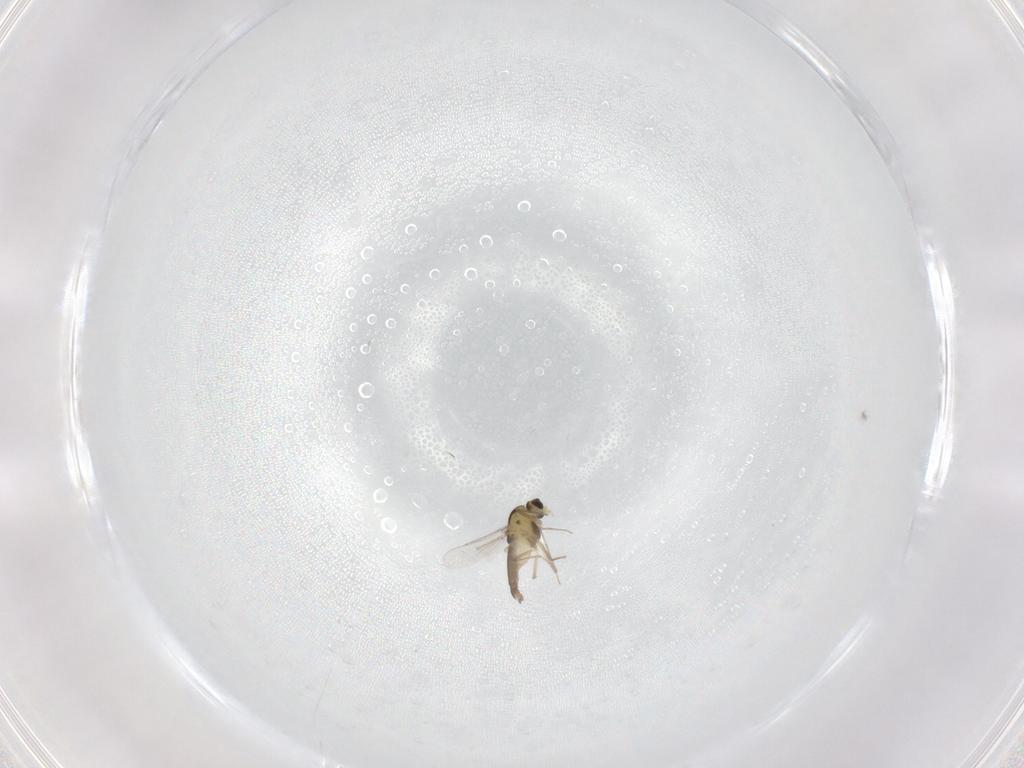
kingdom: Animalia
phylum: Arthropoda
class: Insecta
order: Diptera
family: Chironomidae
